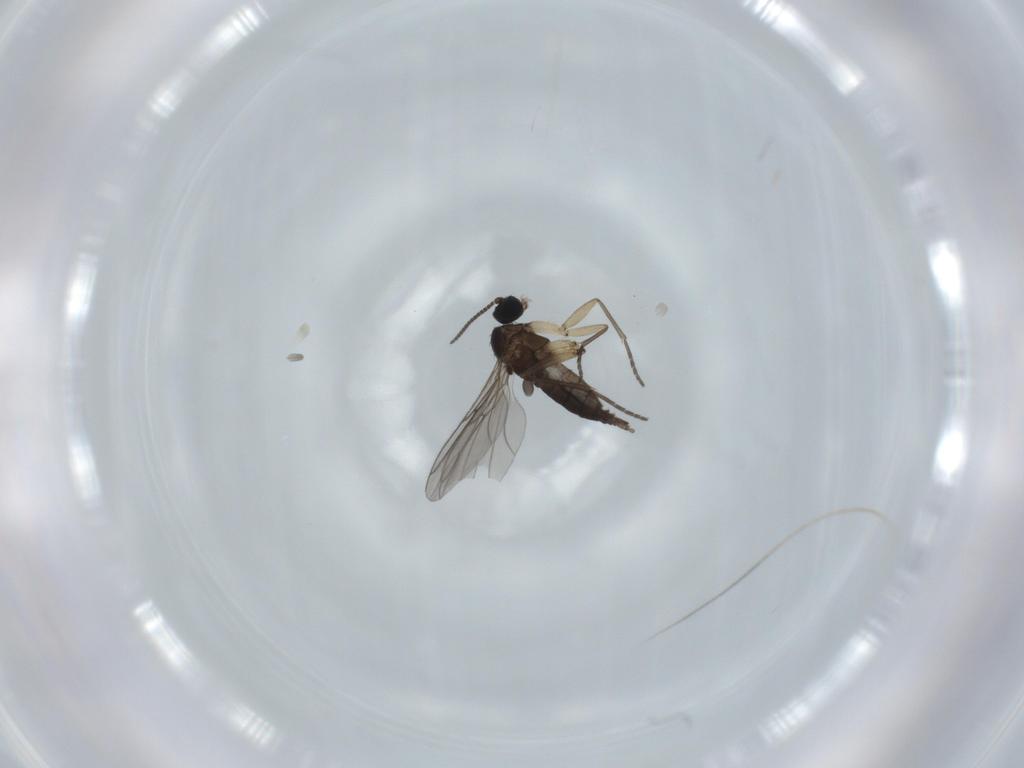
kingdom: Animalia
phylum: Arthropoda
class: Insecta
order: Diptera
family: Sciaridae
